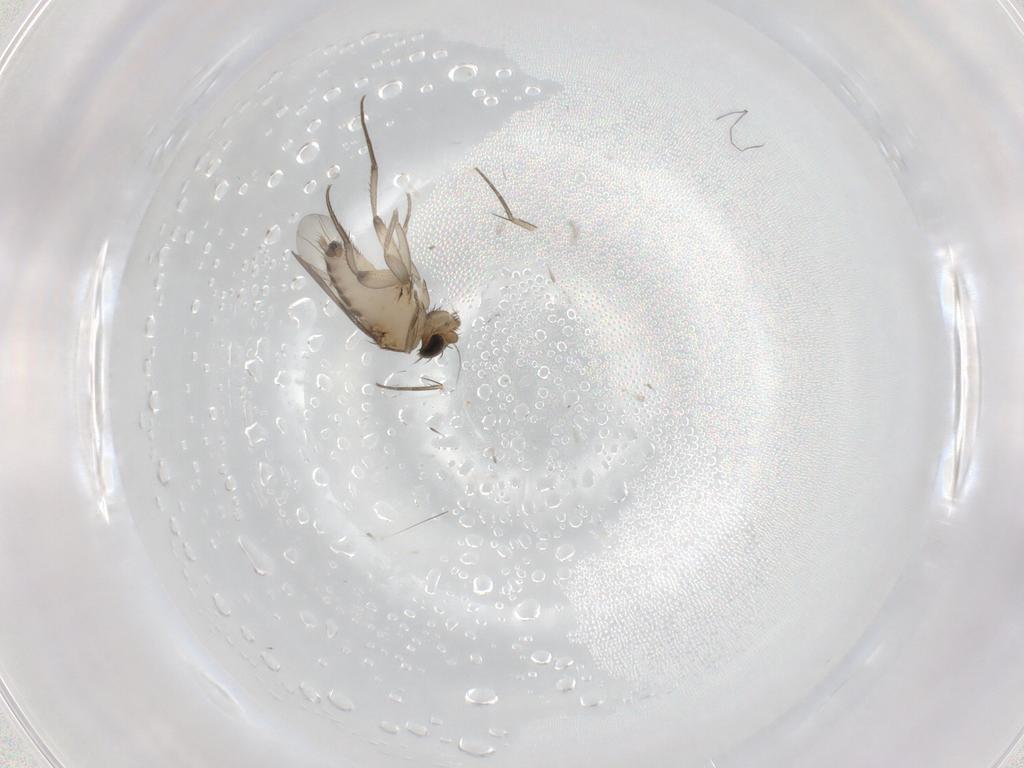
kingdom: Animalia
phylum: Arthropoda
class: Insecta
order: Diptera
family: Phoridae
